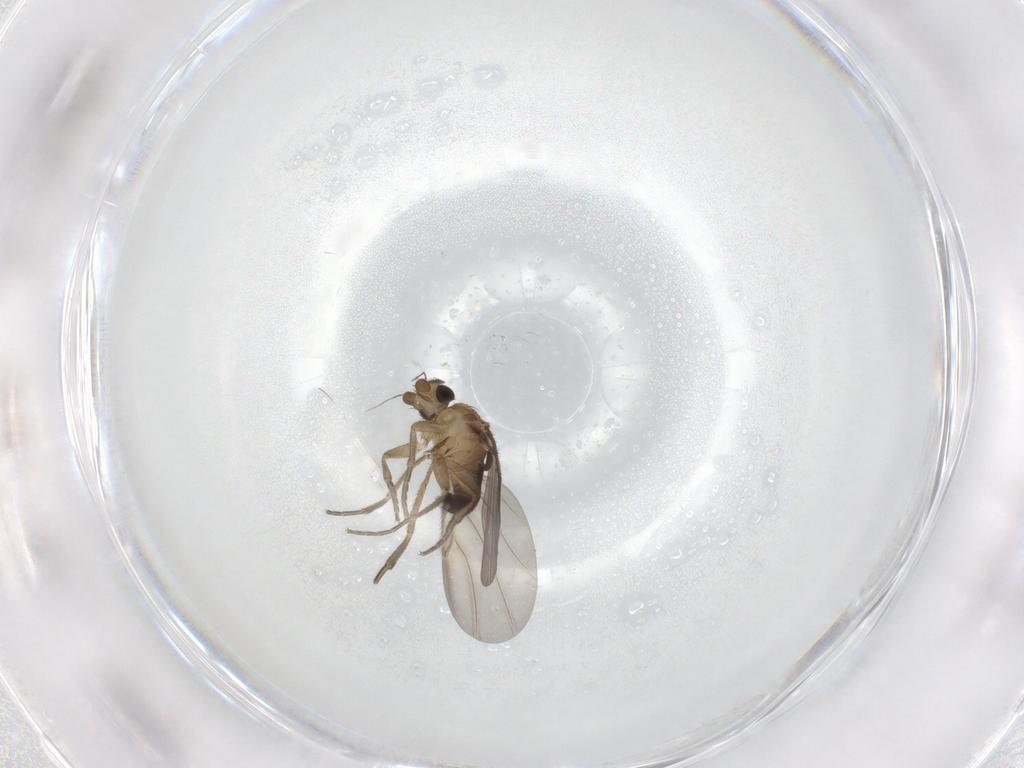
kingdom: Animalia
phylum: Arthropoda
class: Insecta
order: Diptera
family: Phoridae
